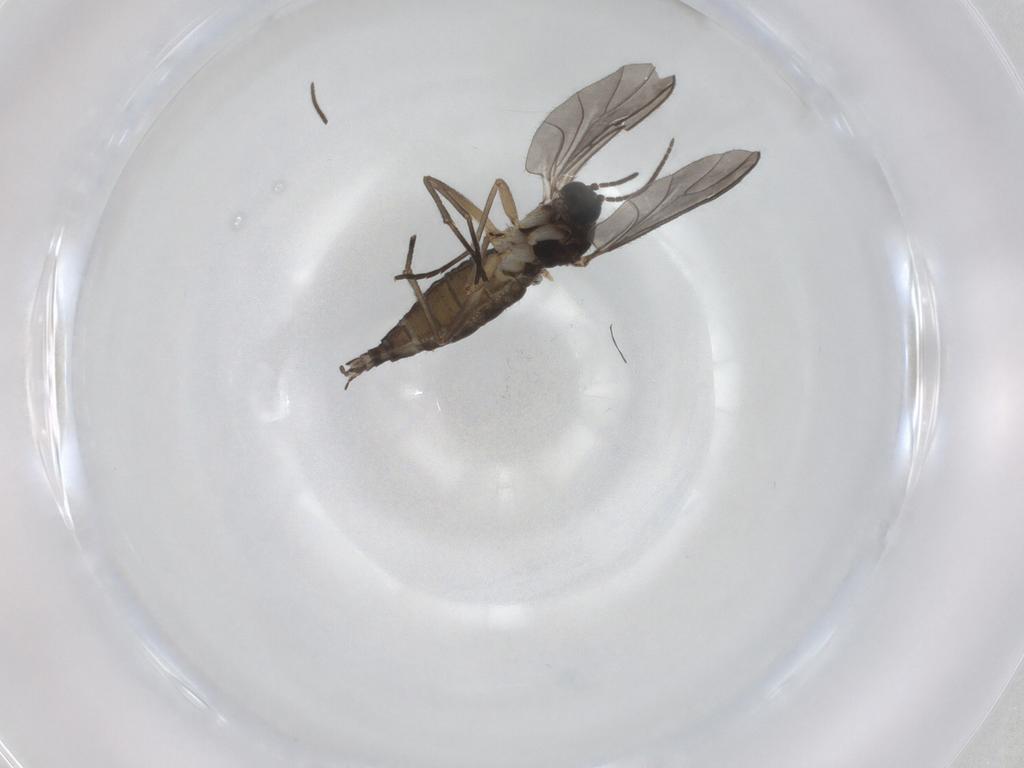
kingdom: Animalia
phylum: Arthropoda
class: Insecta
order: Diptera
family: Sciaridae
